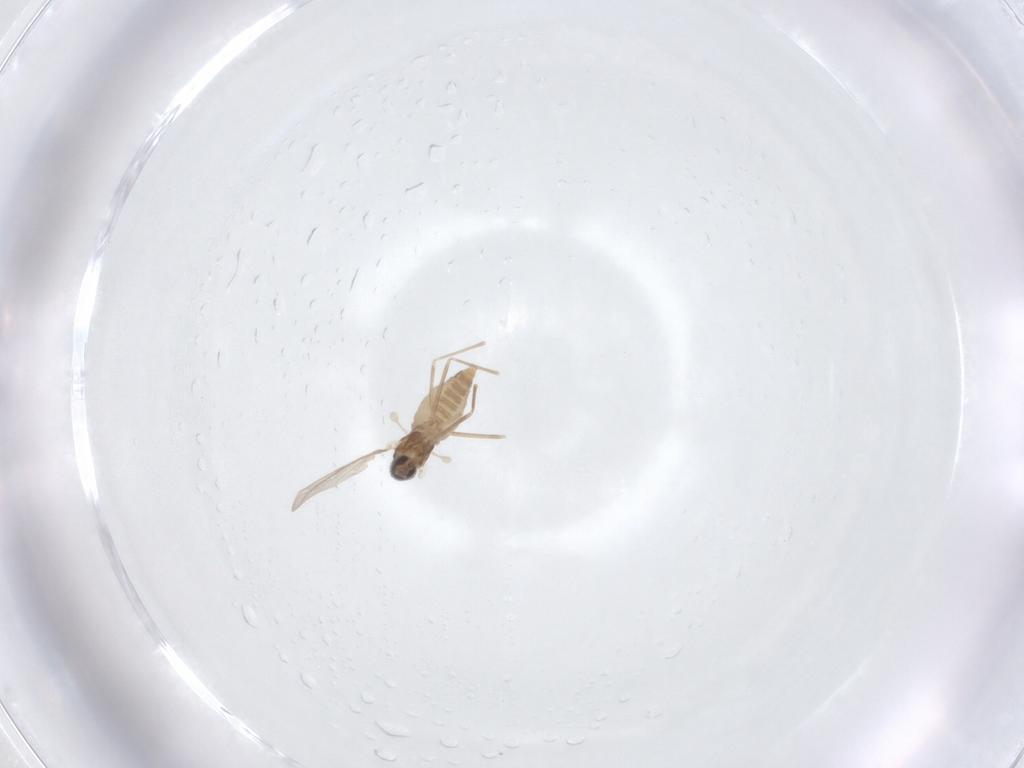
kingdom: Animalia
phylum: Arthropoda
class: Insecta
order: Diptera
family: Cecidomyiidae
